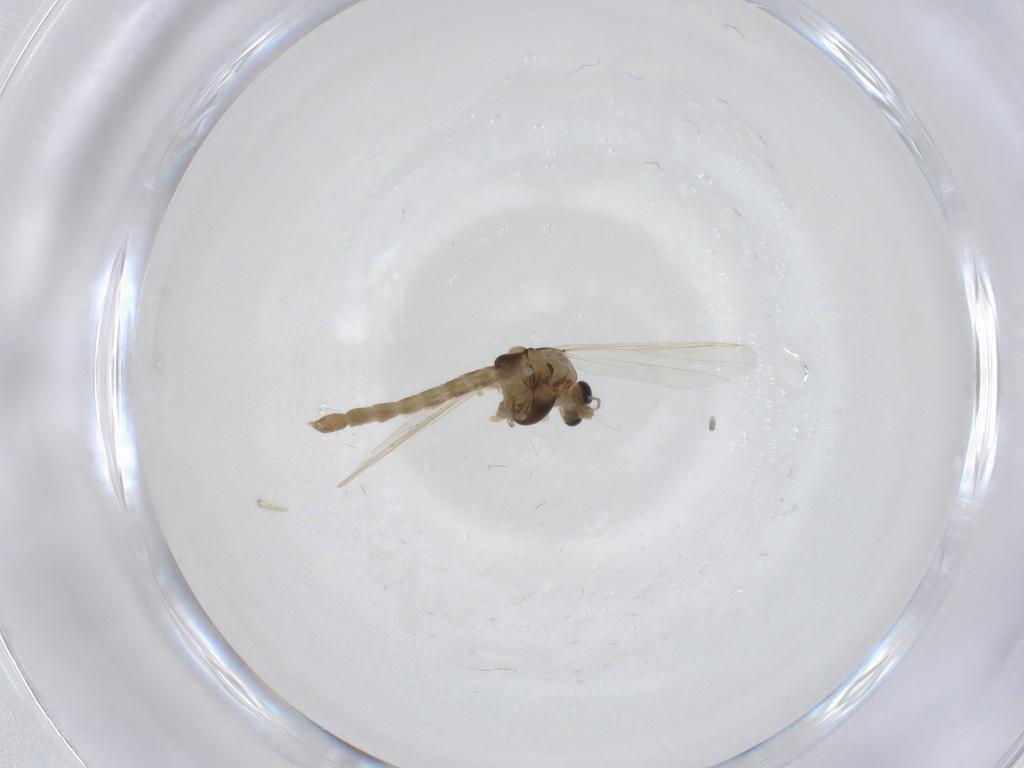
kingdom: Animalia
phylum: Arthropoda
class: Insecta
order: Diptera
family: Chironomidae
